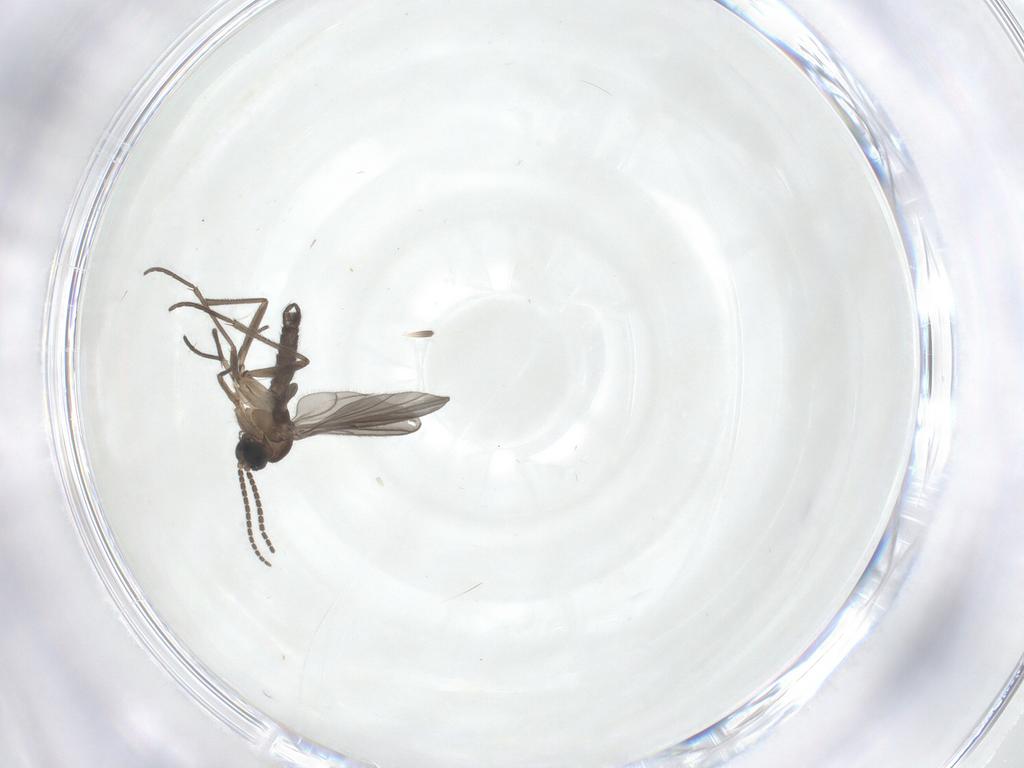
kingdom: Animalia
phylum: Arthropoda
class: Insecta
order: Diptera
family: Sciaridae
